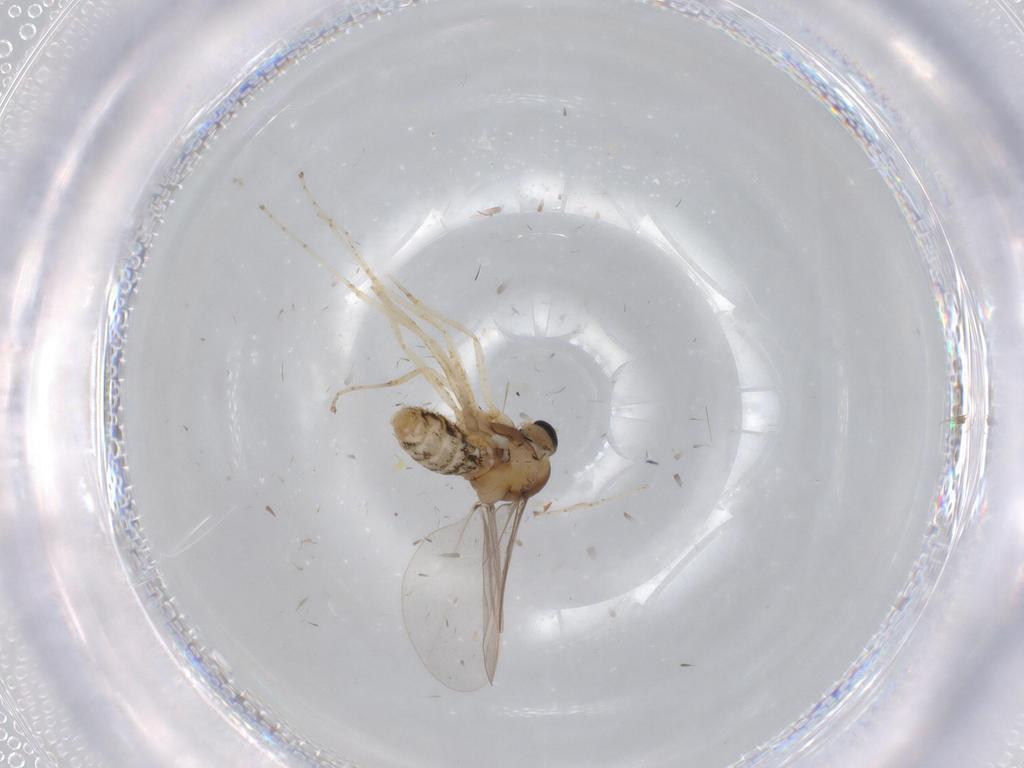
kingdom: Animalia
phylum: Arthropoda
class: Insecta
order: Diptera
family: Cecidomyiidae
